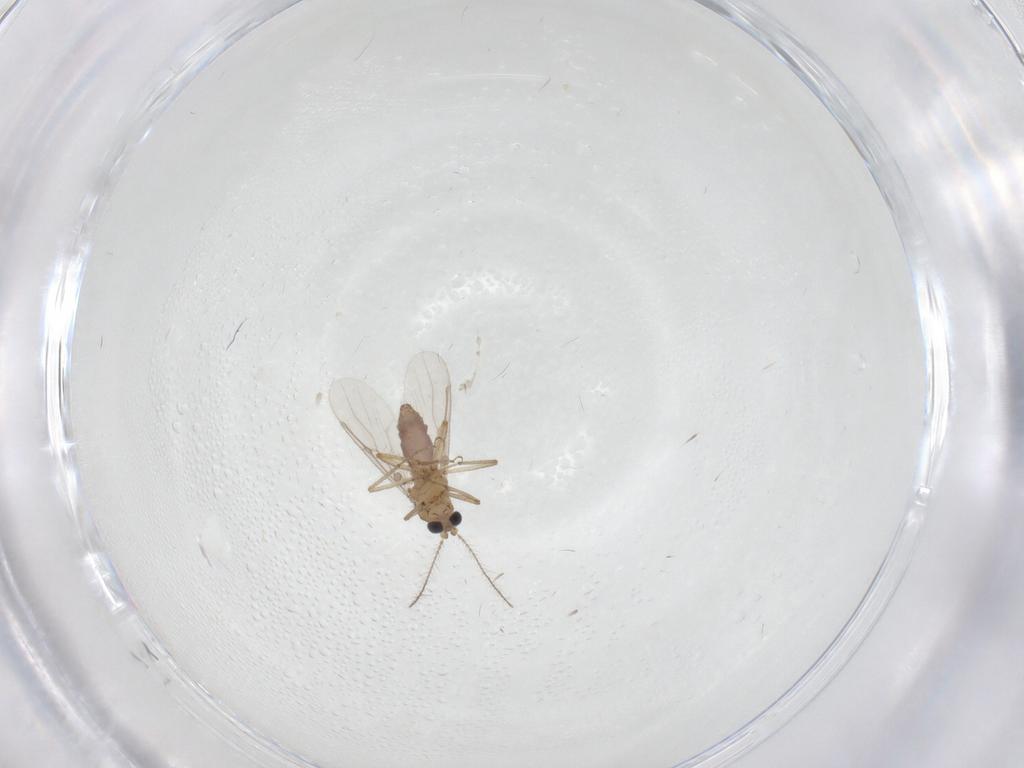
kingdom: Animalia
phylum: Arthropoda
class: Insecta
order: Diptera
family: Ceratopogonidae
